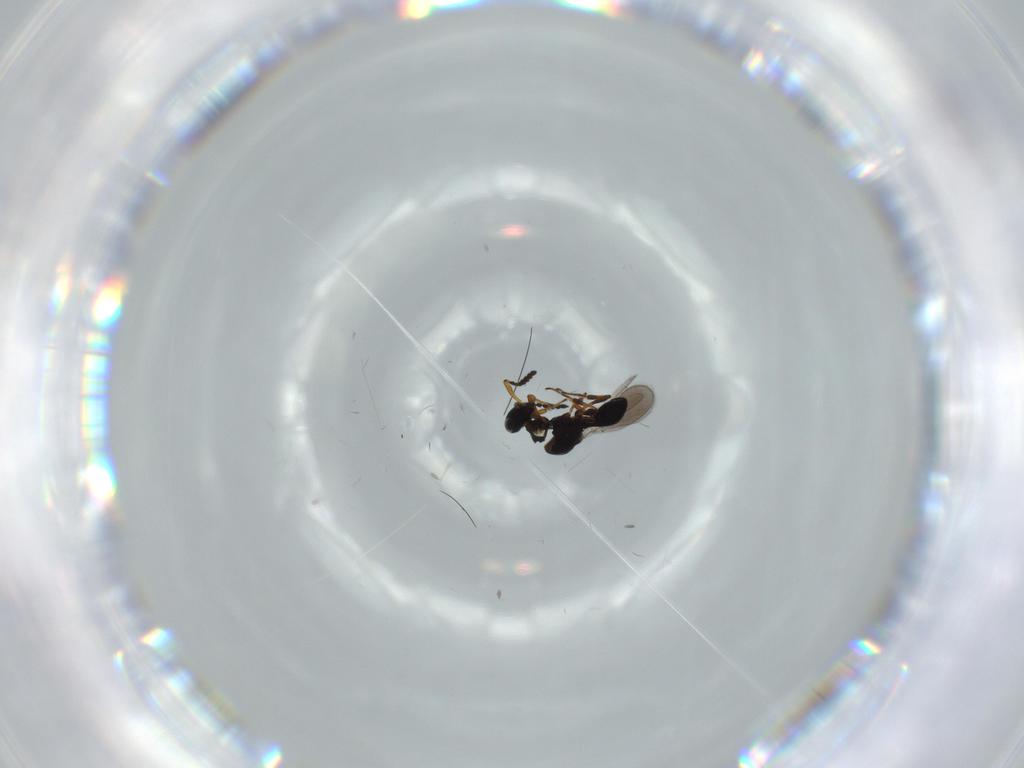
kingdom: Animalia
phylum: Arthropoda
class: Insecta
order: Hymenoptera
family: Platygastridae
